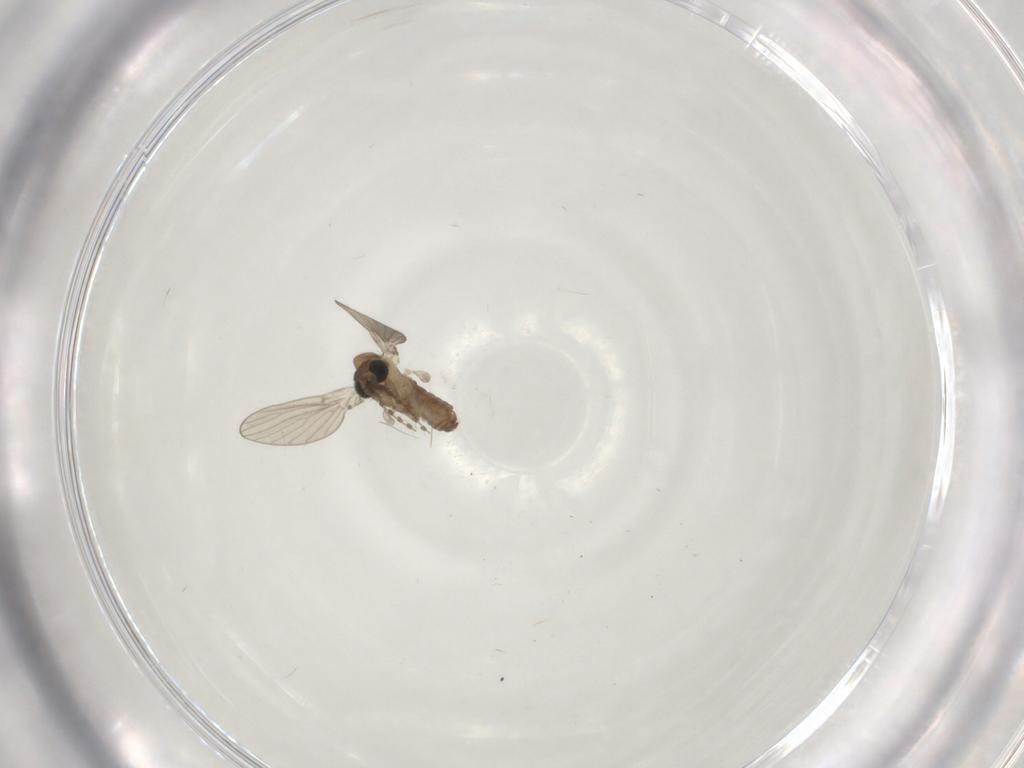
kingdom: Animalia
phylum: Arthropoda
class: Insecta
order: Diptera
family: Psychodidae
